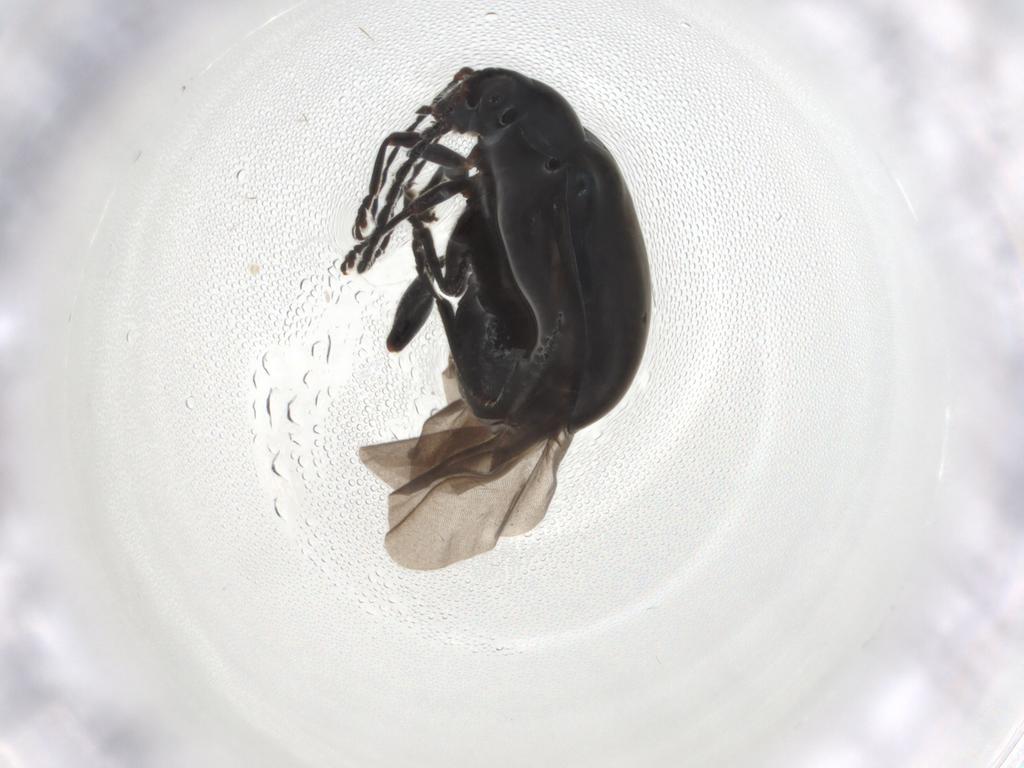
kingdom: Animalia
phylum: Arthropoda
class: Insecta
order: Coleoptera
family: Chrysomelidae
